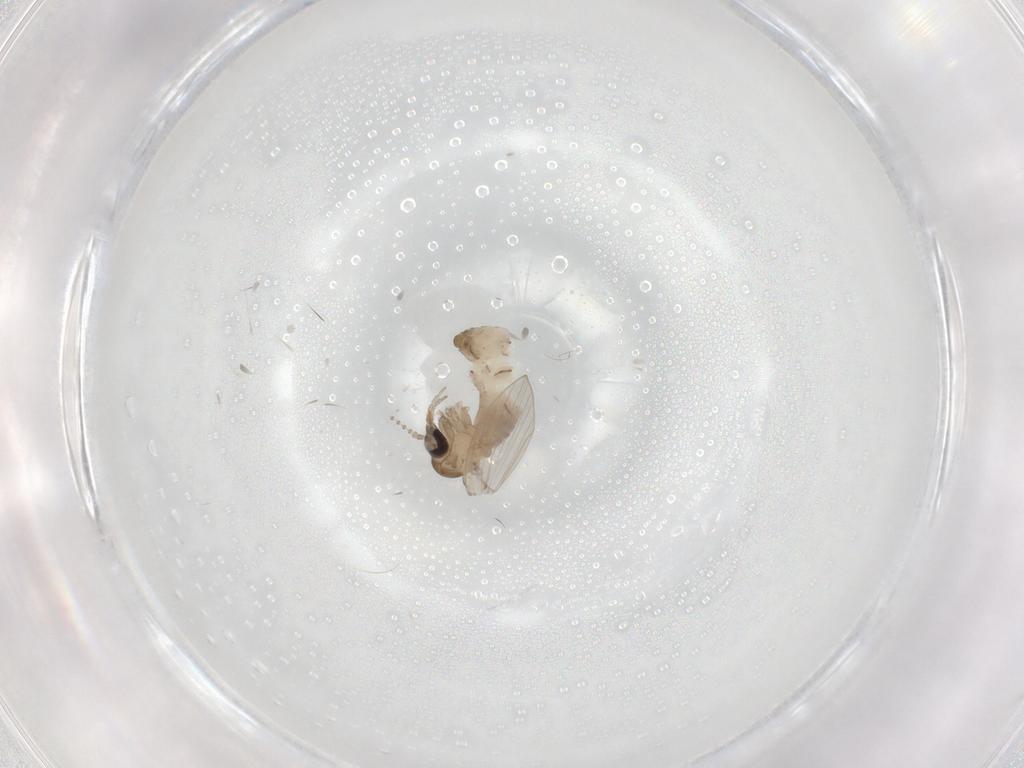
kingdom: Animalia
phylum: Arthropoda
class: Insecta
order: Diptera
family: Psychodidae
